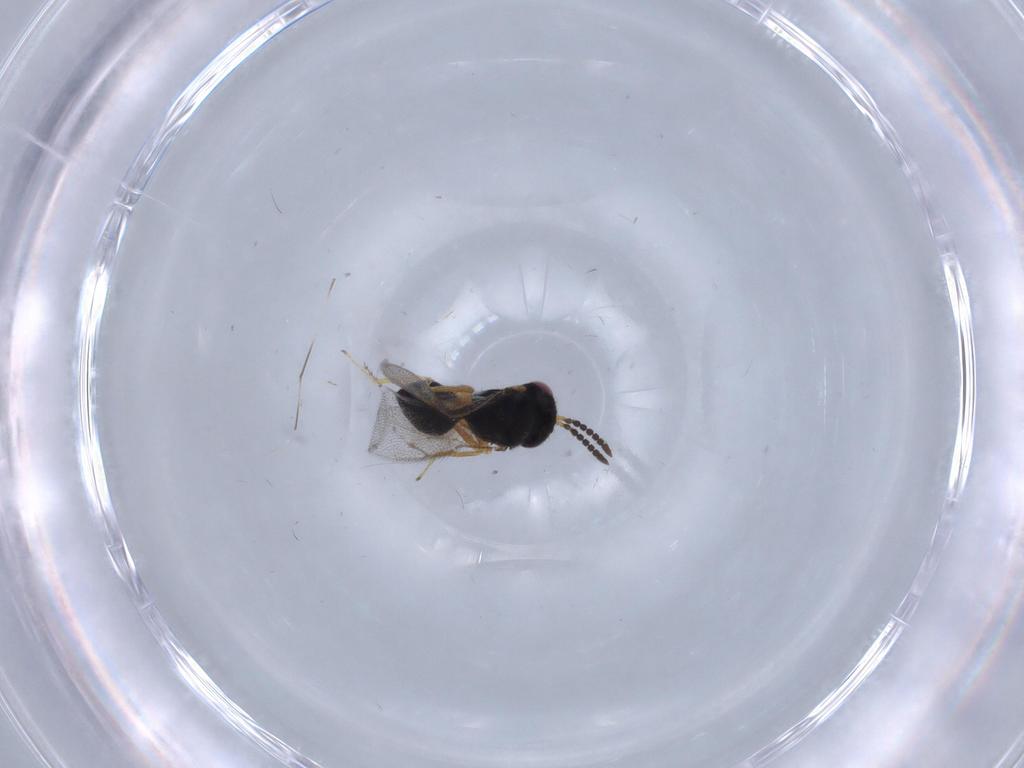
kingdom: Animalia
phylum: Arthropoda
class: Insecta
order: Hymenoptera
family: Pteromalidae
